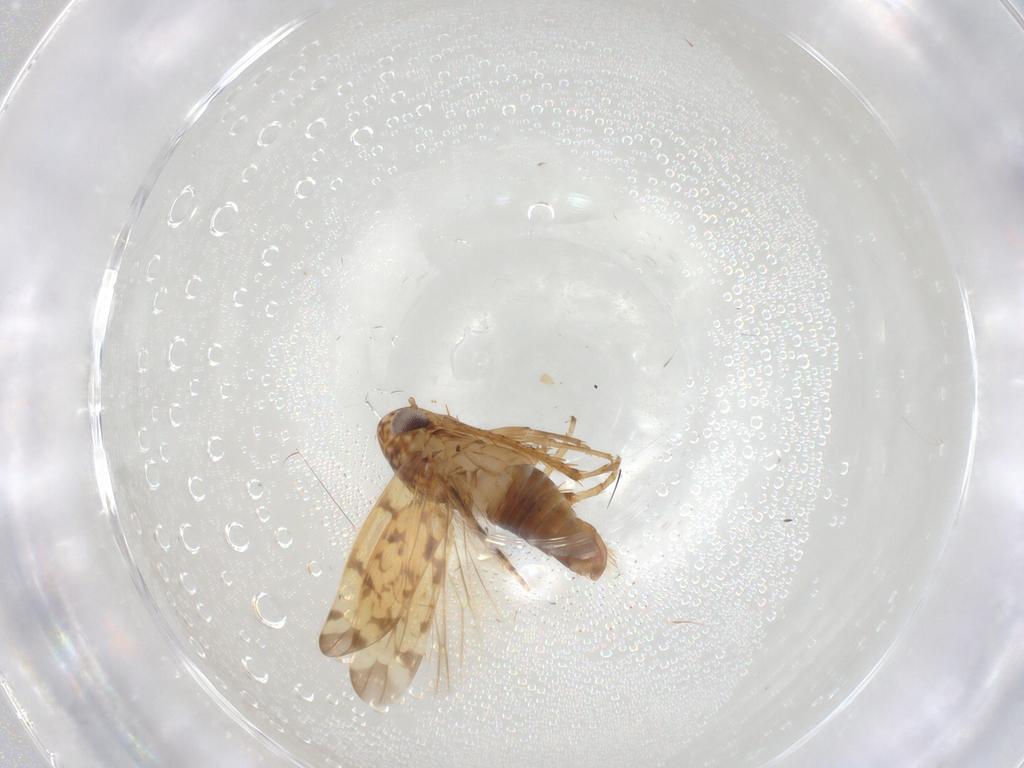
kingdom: Animalia
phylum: Arthropoda
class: Insecta
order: Hemiptera
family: Cicadellidae
